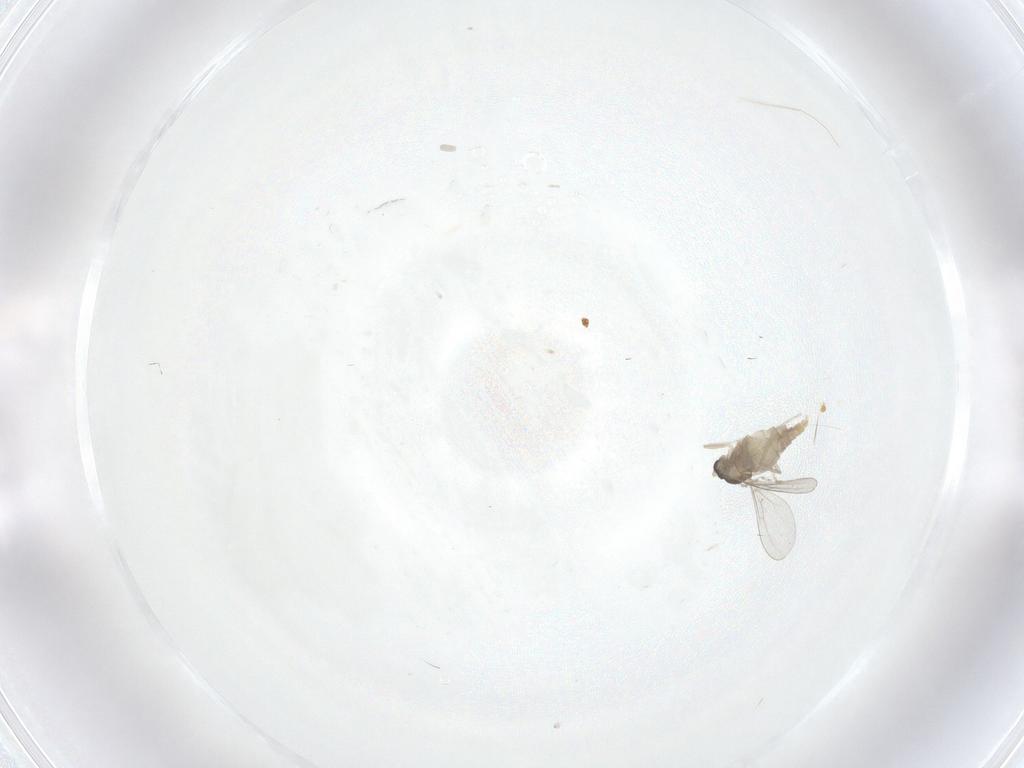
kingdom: Animalia
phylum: Arthropoda
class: Insecta
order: Diptera
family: Cecidomyiidae
